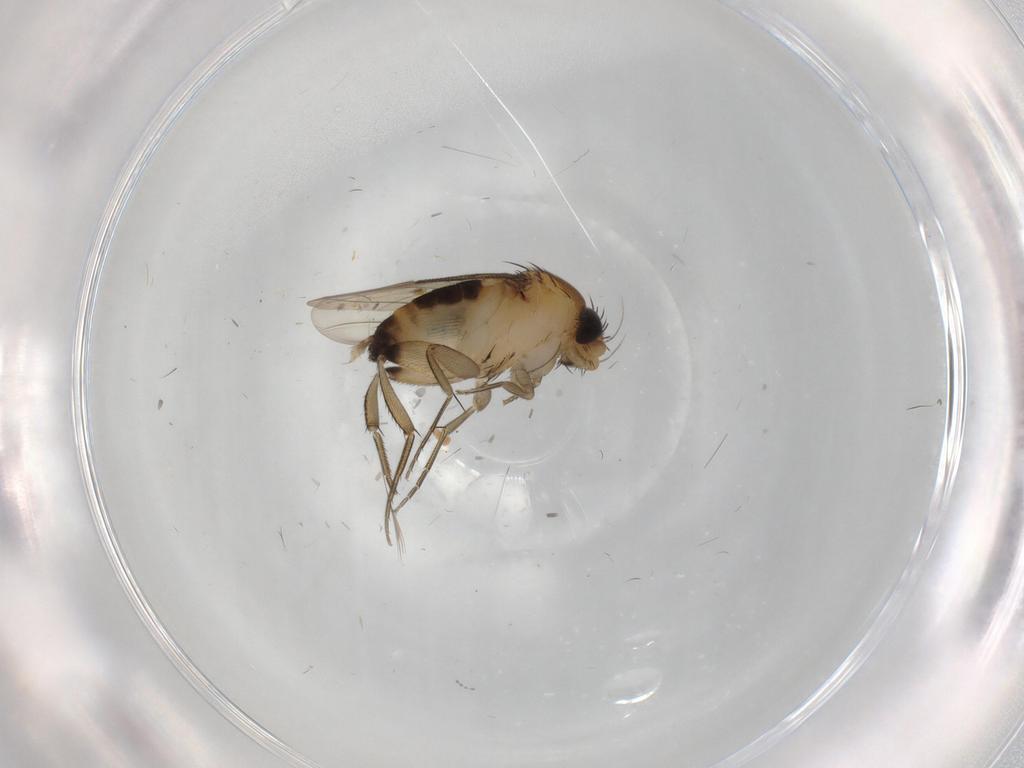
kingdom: Animalia
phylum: Arthropoda
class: Insecta
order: Diptera
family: Phoridae
